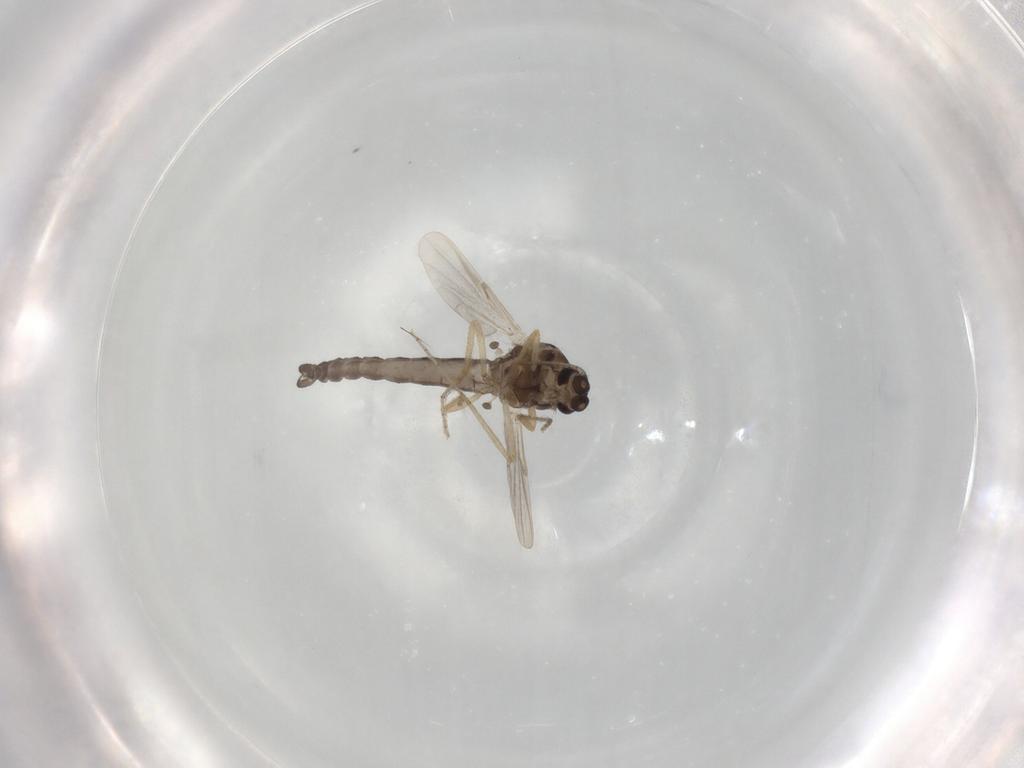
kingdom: Animalia
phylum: Arthropoda
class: Insecta
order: Diptera
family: Ceratopogonidae
